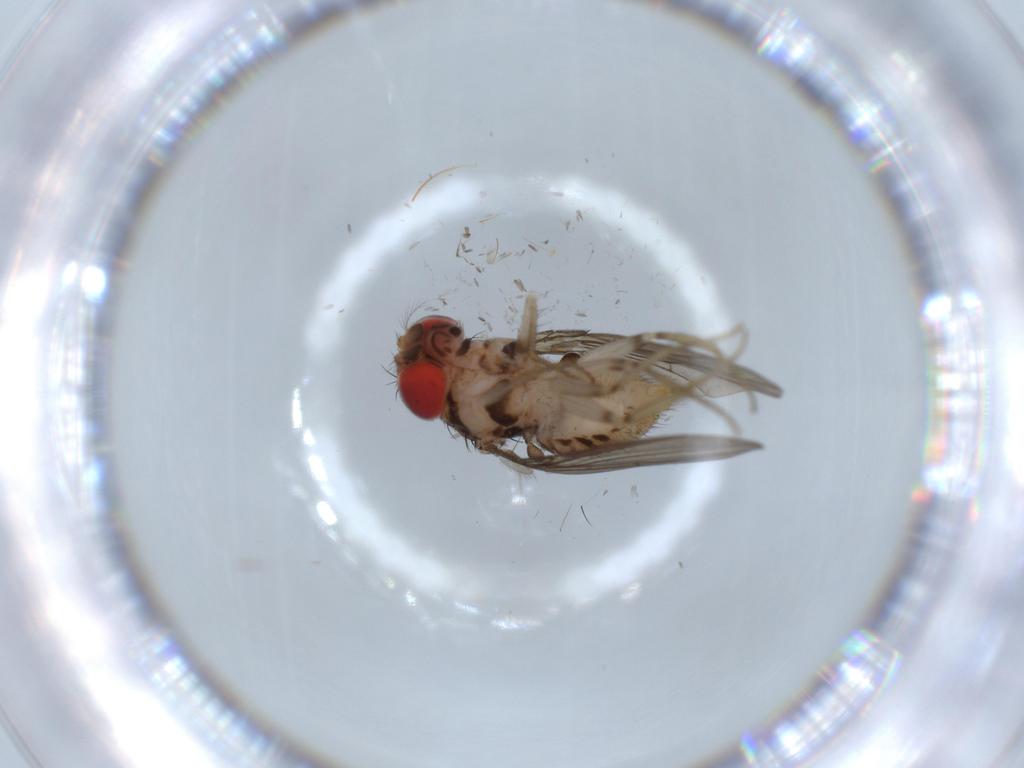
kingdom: Animalia
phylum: Arthropoda
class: Insecta
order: Diptera
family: Drosophilidae
